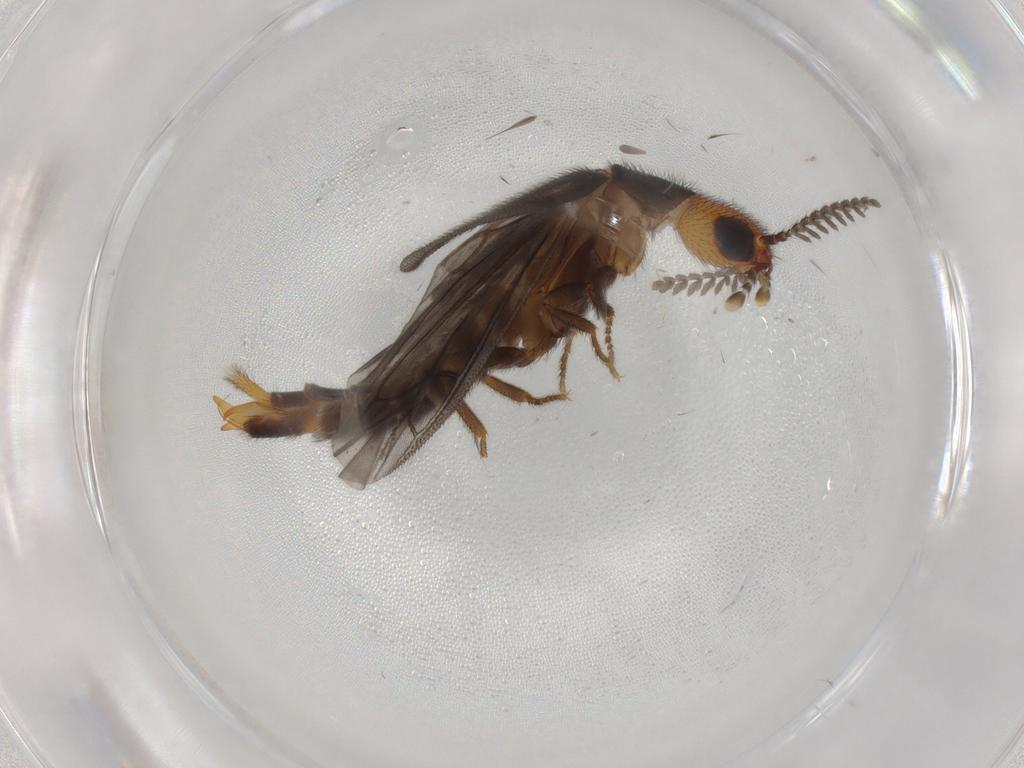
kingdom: Animalia
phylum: Arthropoda
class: Insecta
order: Coleoptera
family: Phengodidae
